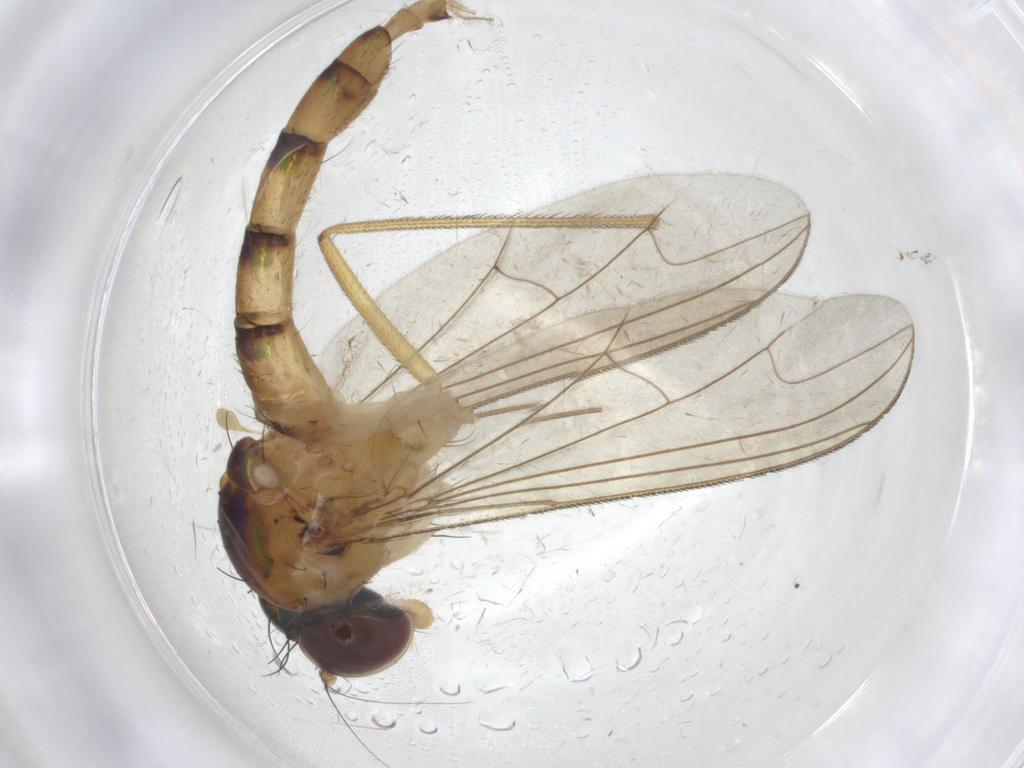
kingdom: Animalia
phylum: Arthropoda
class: Insecta
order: Diptera
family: Dolichopodidae
